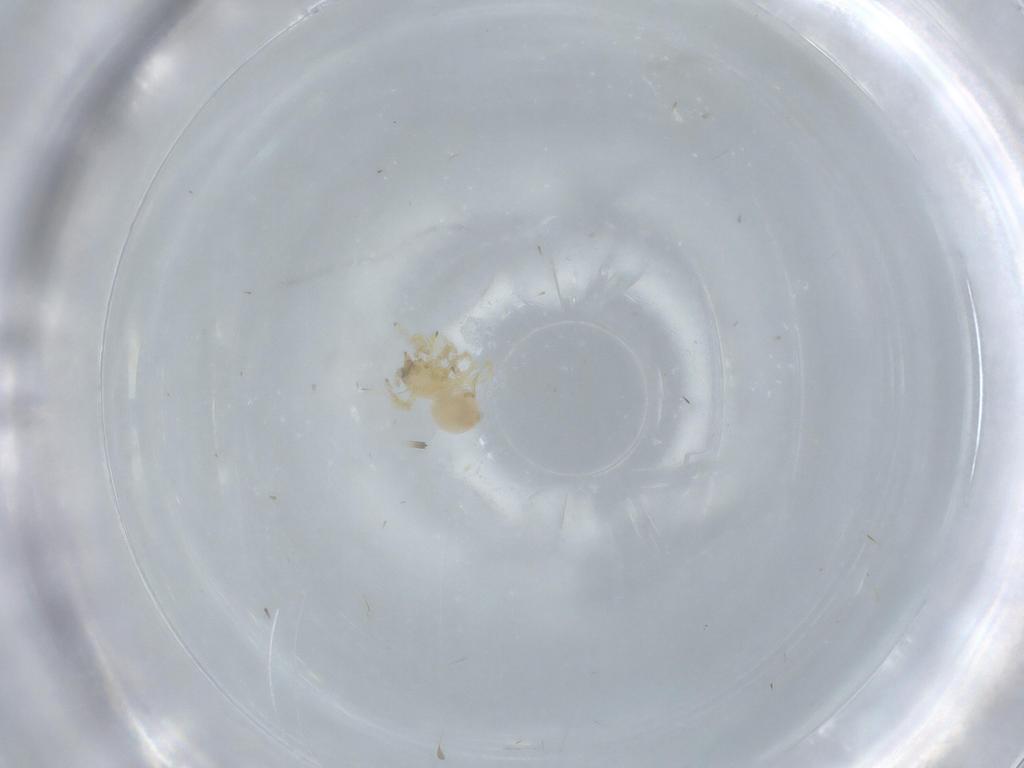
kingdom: Animalia
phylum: Arthropoda
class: Arachnida
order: Araneae
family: Oonopidae
